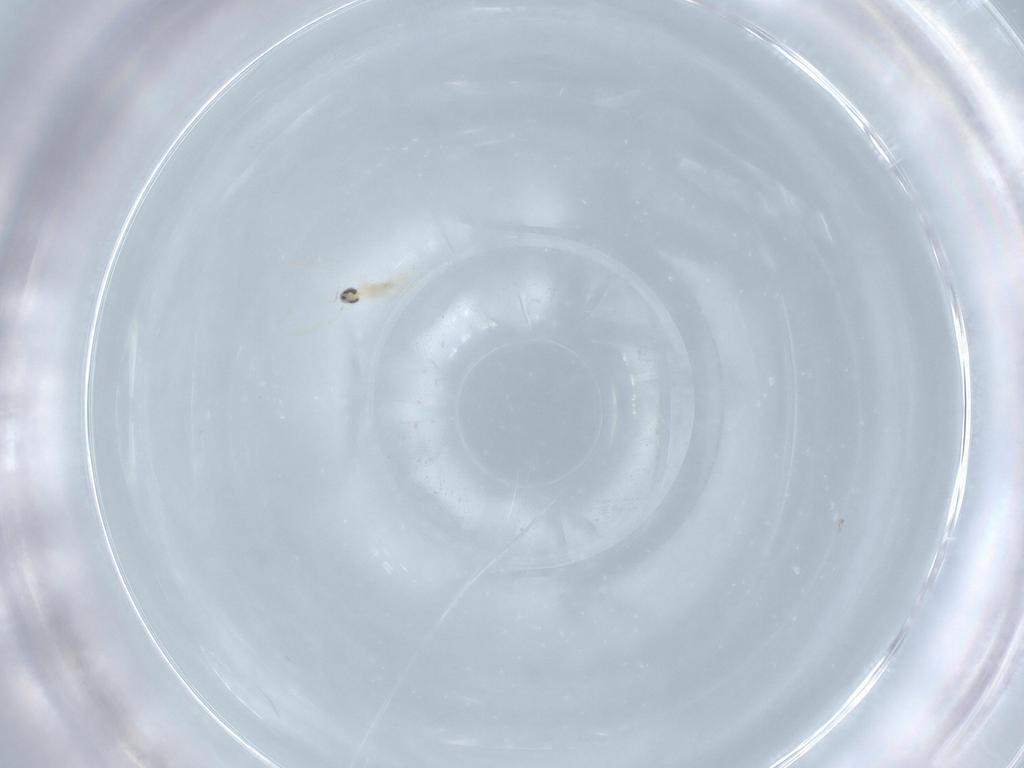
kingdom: Animalia
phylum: Arthropoda
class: Insecta
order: Diptera
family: Cecidomyiidae
